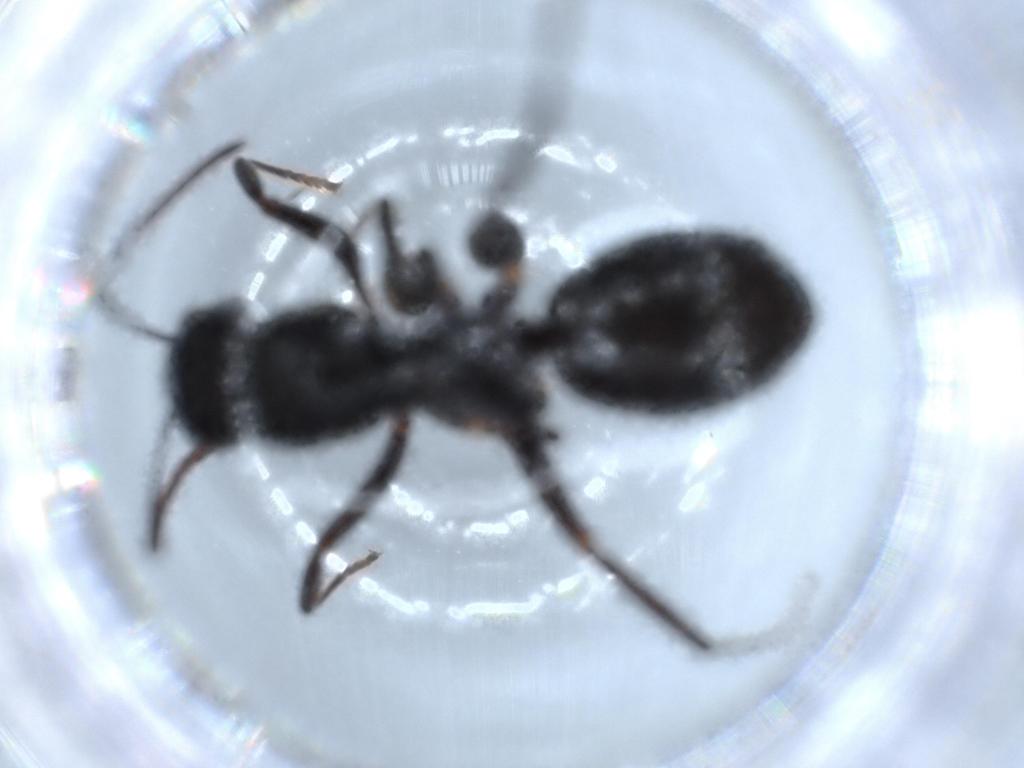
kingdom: Animalia
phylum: Arthropoda
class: Insecta
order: Hymenoptera
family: Formicidae
